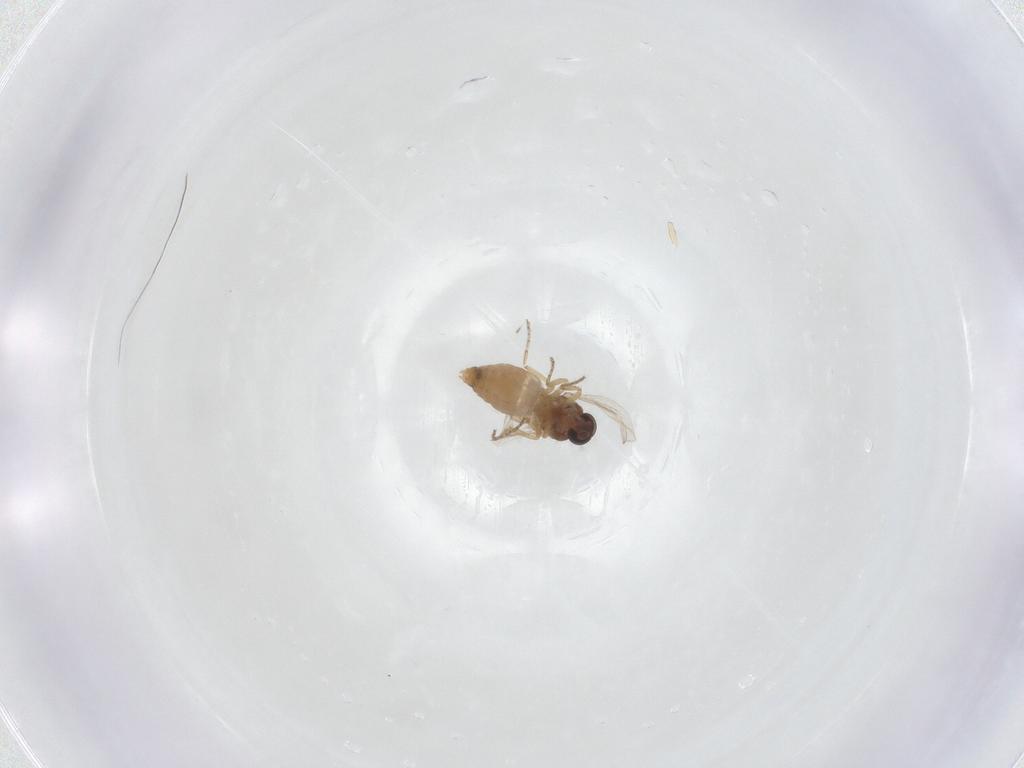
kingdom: Animalia
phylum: Arthropoda
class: Insecta
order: Diptera
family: Ceratopogonidae
